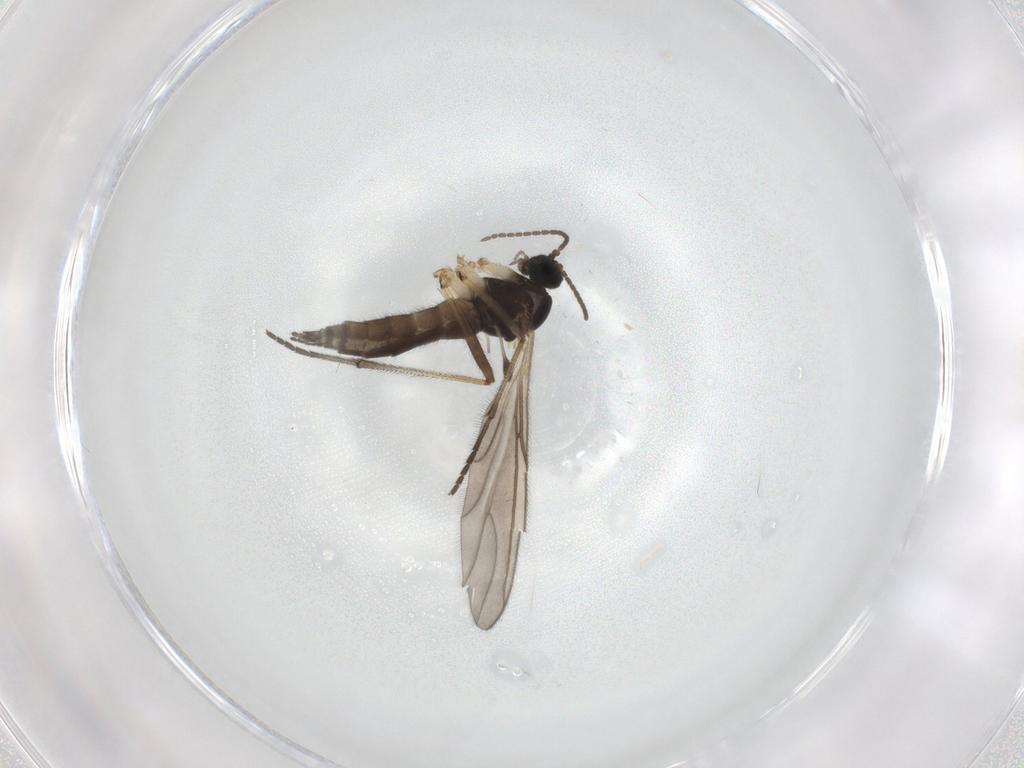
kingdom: Animalia
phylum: Arthropoda
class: Insecta
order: Diptera
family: Sciaridae
